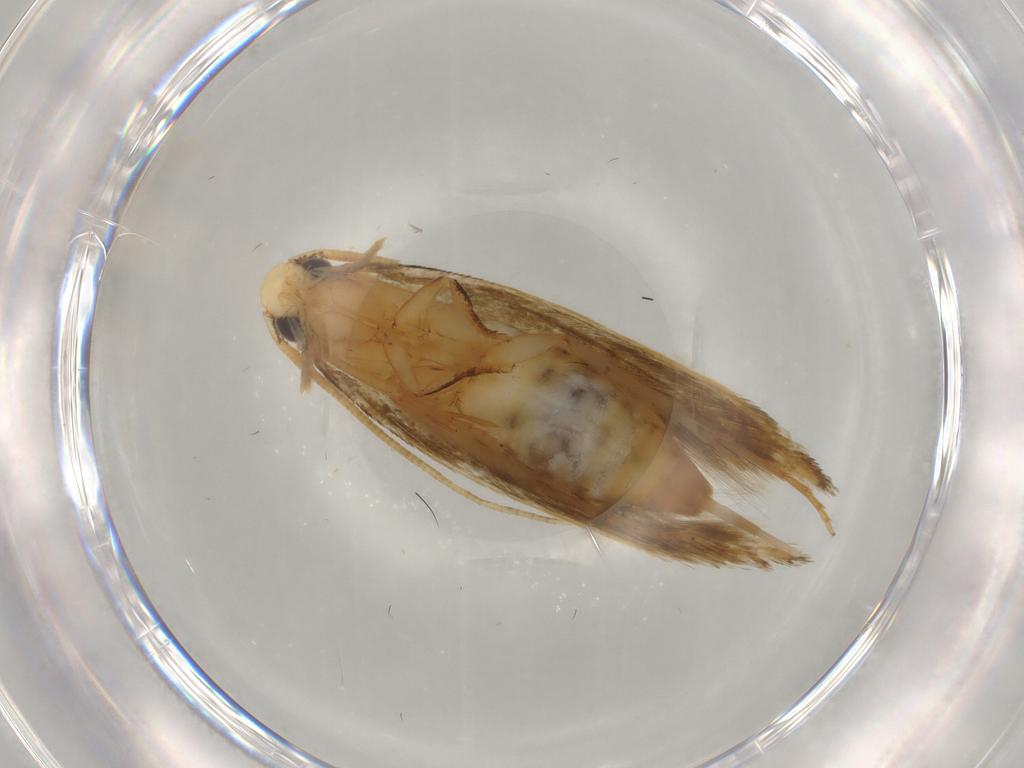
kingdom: Animalia
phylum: Arthropoda
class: Insecta
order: Lepidoptera
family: Tineidae
